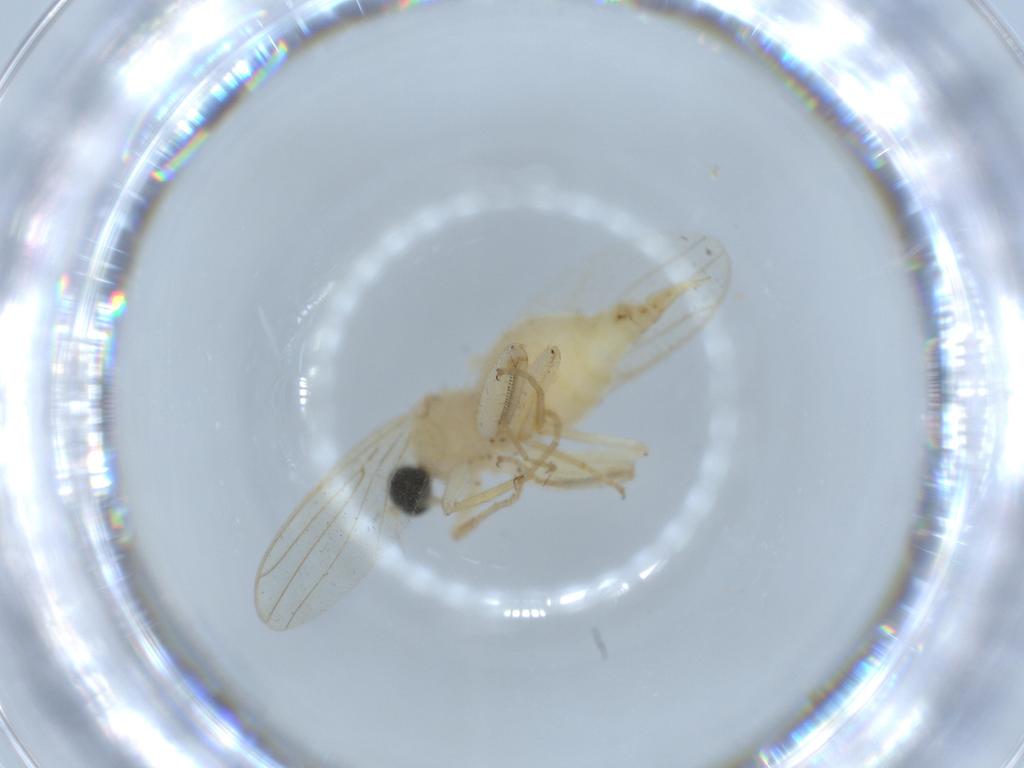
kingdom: Animalia
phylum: Arthropoda
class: Insecta
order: Diptera
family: Hybotidae
